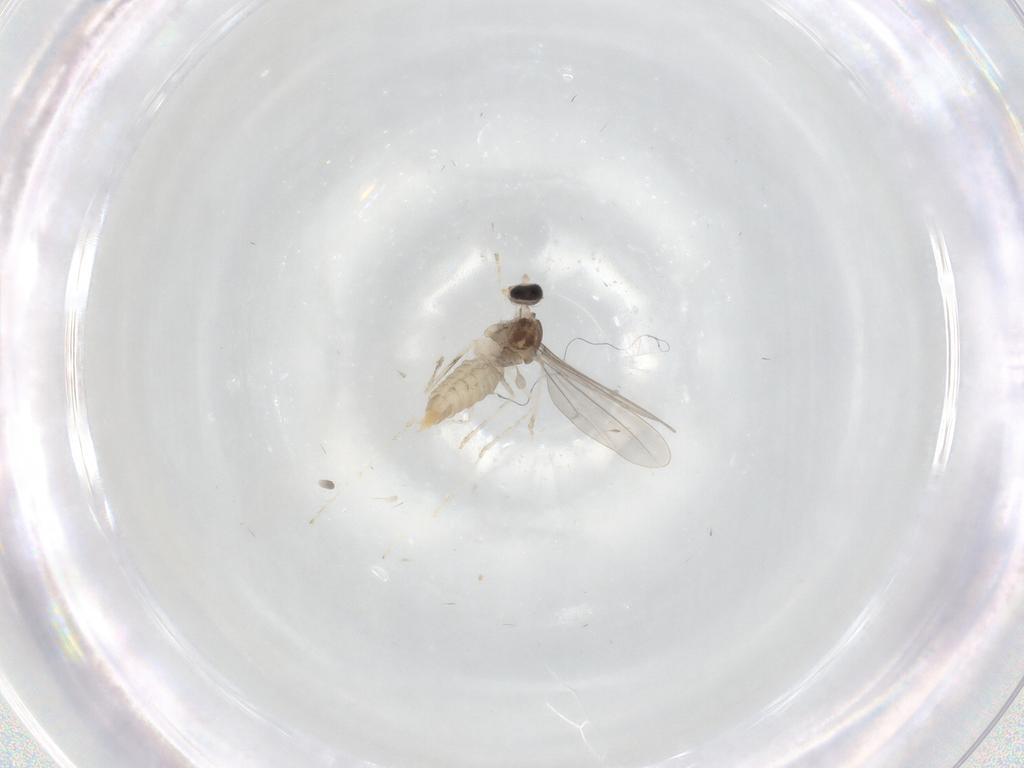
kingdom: Animalia
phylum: Arthropoda
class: Insecta
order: Diptera
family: Cecidomyiidae
